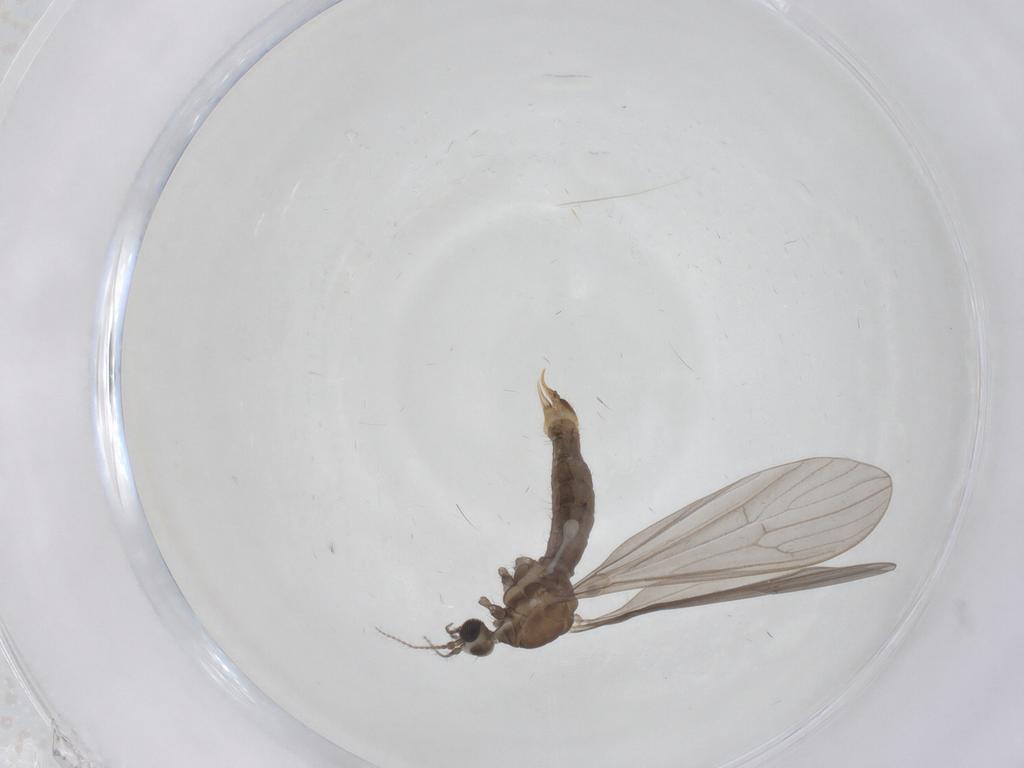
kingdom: Animalia
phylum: Arthropoda
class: Insecta
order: Diptera
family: Limoniidae
